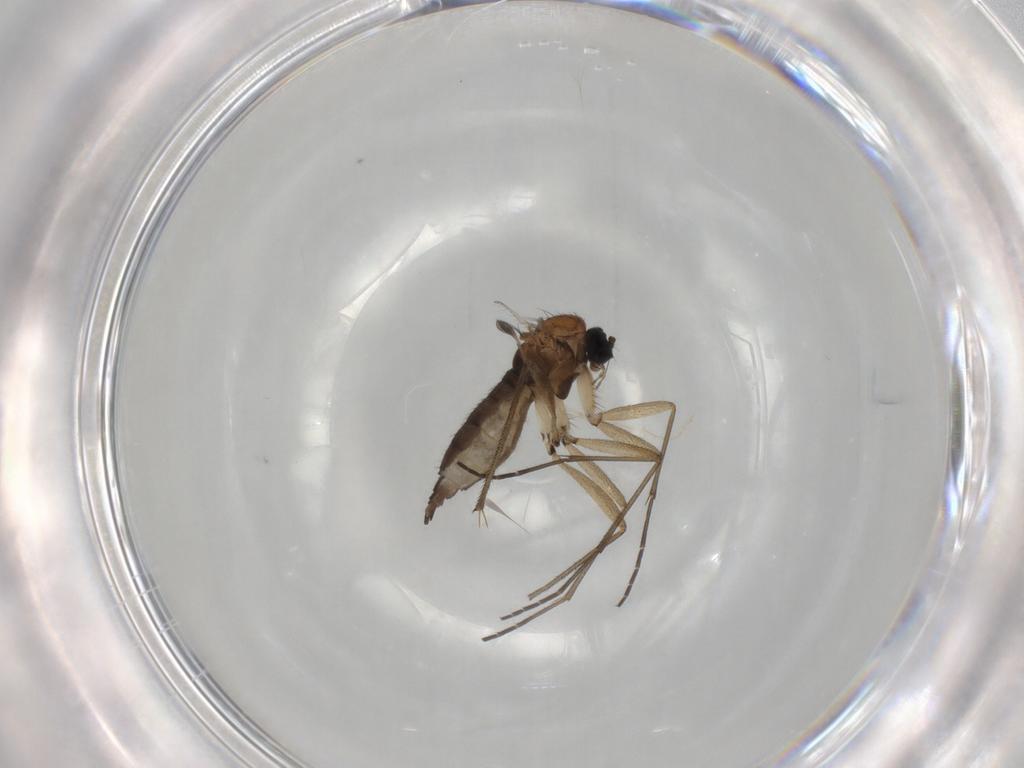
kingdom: Animalia
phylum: Arthropoda
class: Insecta
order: Diptera
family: Sciaridae
